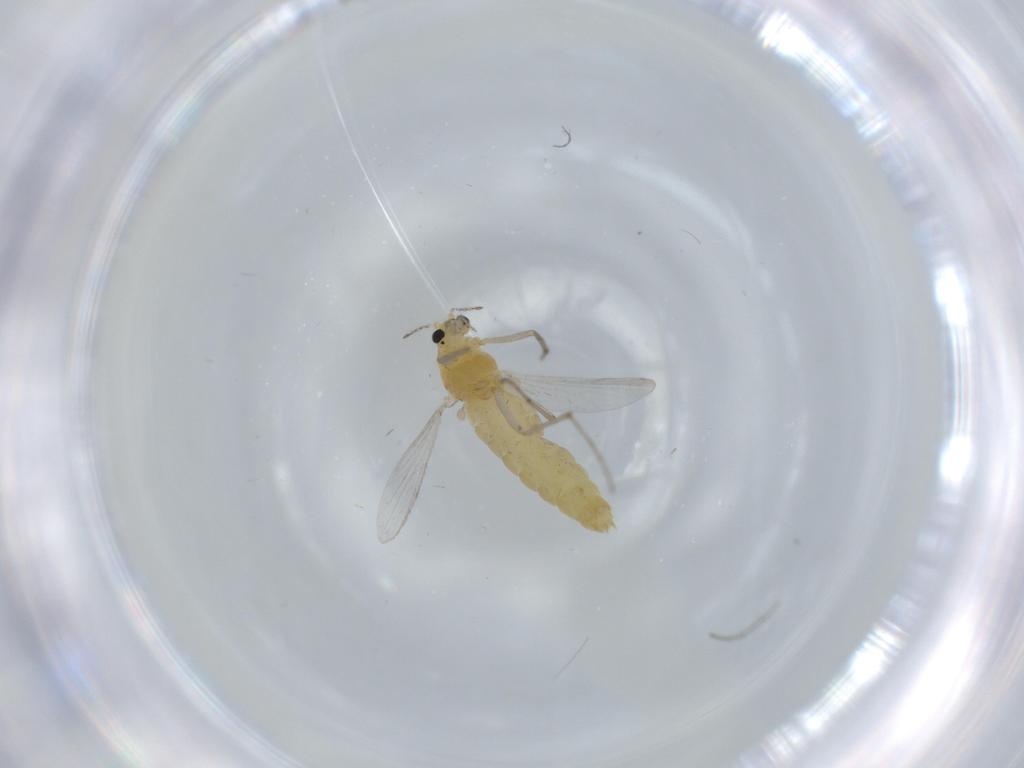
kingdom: Animalia
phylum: Arthropoda
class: Insecta
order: Diptera
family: Chironomidae
